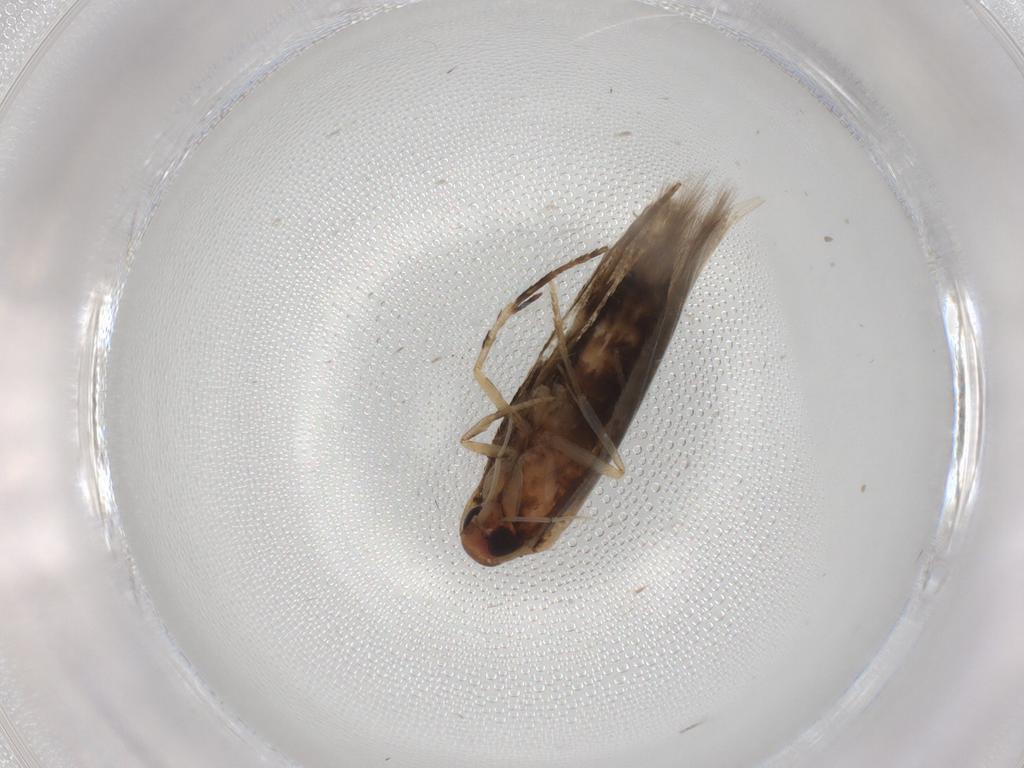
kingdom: Animalia
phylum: Arthropoda
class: Insecta
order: Lepidoptera
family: Cosmopterigidae
